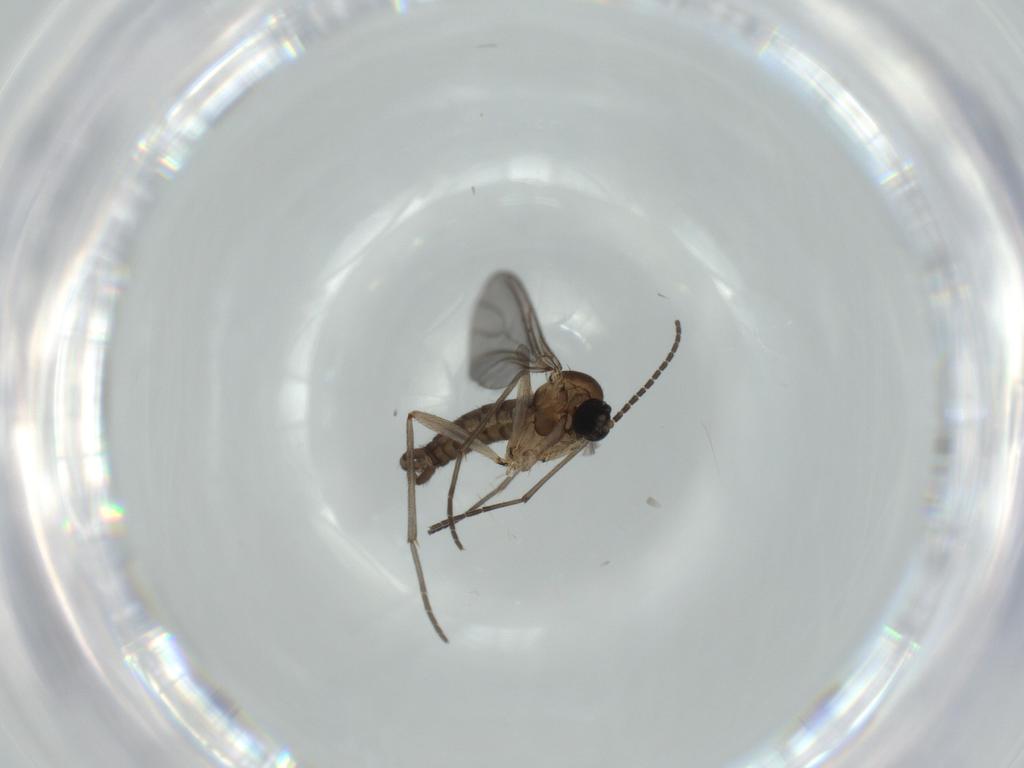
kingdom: Animalia
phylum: Arthropoda
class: Insecta
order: Diptera
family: Sciaridae
